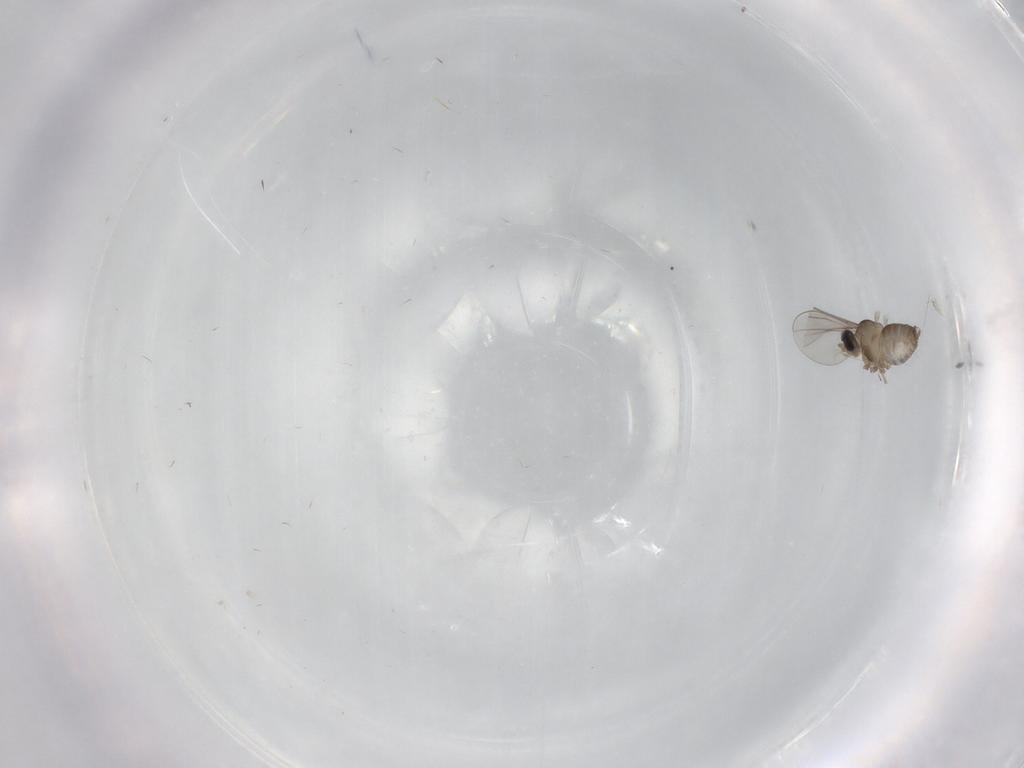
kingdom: Animalia
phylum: Arthropoda
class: Insecta
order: Diptera
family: Cecidomyiidae
